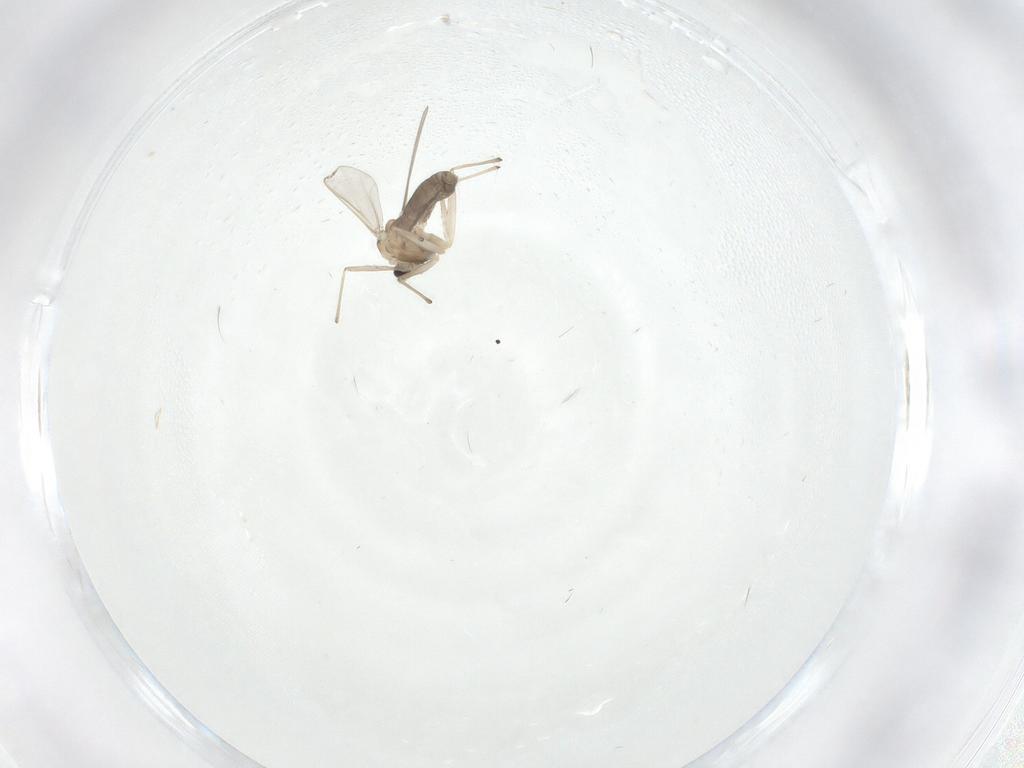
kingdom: Animalia
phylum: Arthropoda
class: Insecta
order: Diptera
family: Chironomidae
